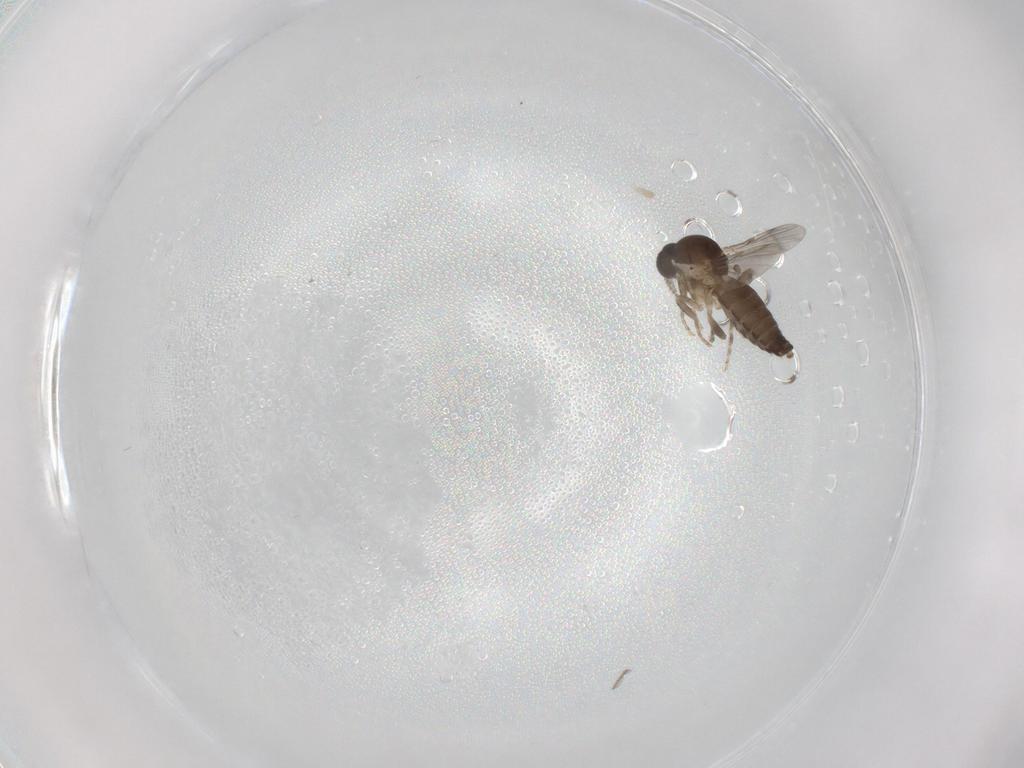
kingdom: Animalia
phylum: Arthropoda
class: Insecta
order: Diptera
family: Ceratopogonidae
